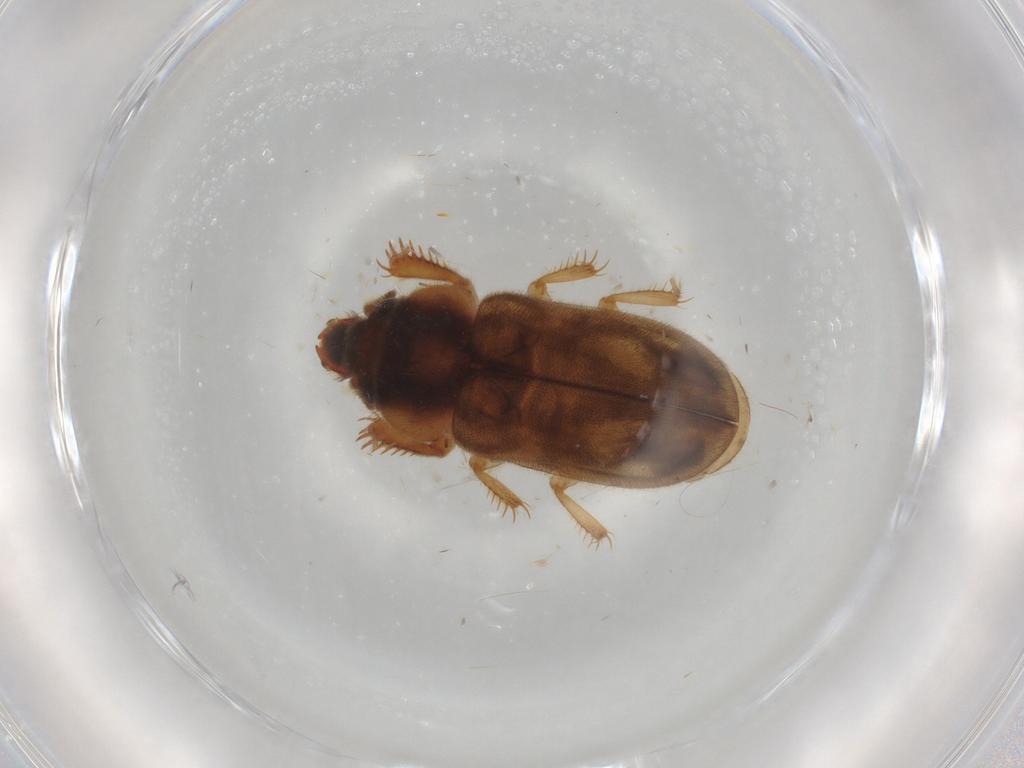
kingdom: Animalia
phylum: Arthropoda
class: Insecta
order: Coleoptera
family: Heteroceridae
